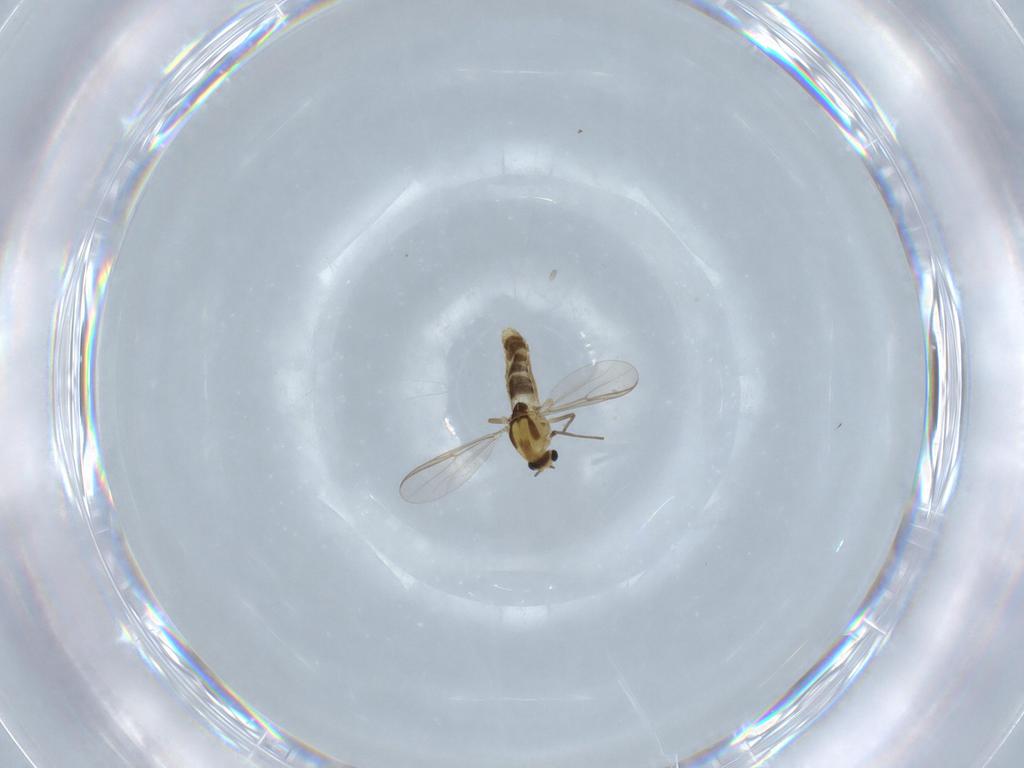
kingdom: Animalia
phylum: Arthropoda
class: Insecta
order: Diptera
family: Chironomidae
